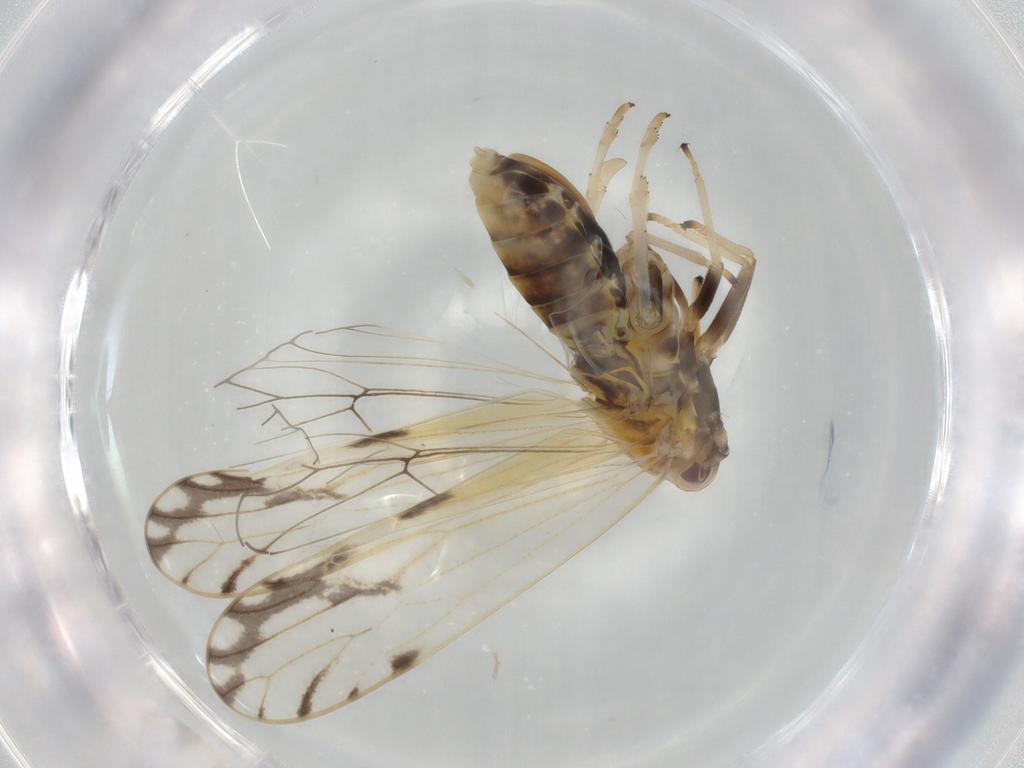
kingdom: Animalia
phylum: Arthropoda
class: Insecta
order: Hemiptera
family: Delphacidae
